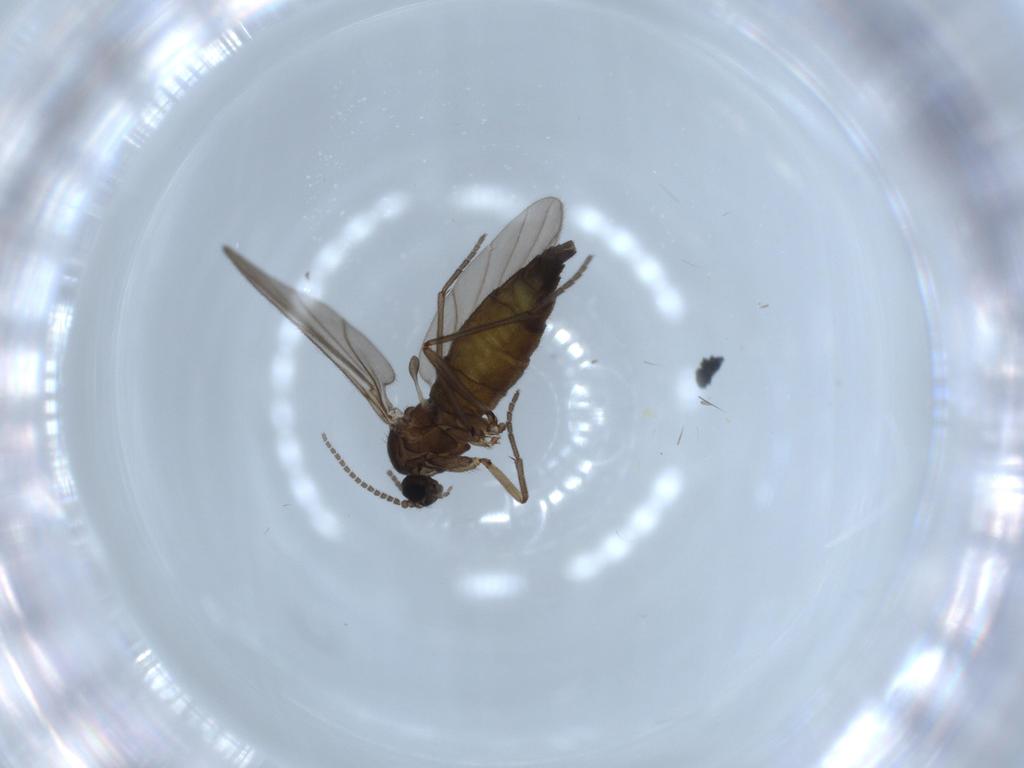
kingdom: Animalia
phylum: Arthropoda
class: Insecta
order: Diptera
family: Sciaridae
